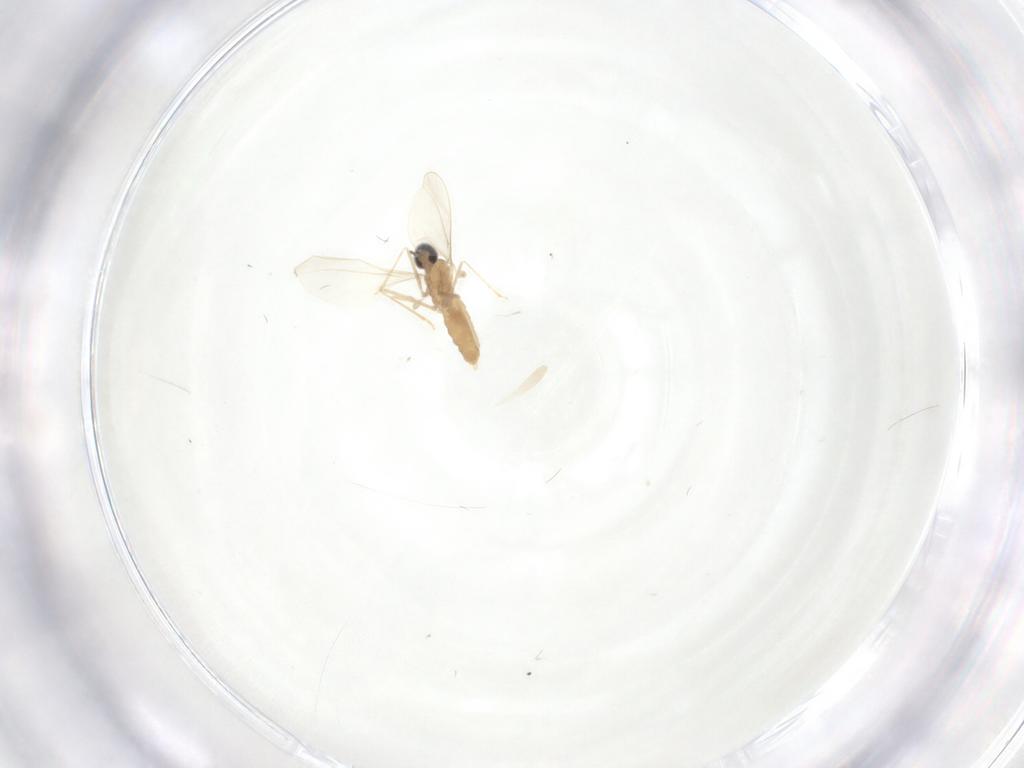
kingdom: Animalia
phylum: Arthropoda
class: Insecta
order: Diptera
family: Cecidomyiidae
